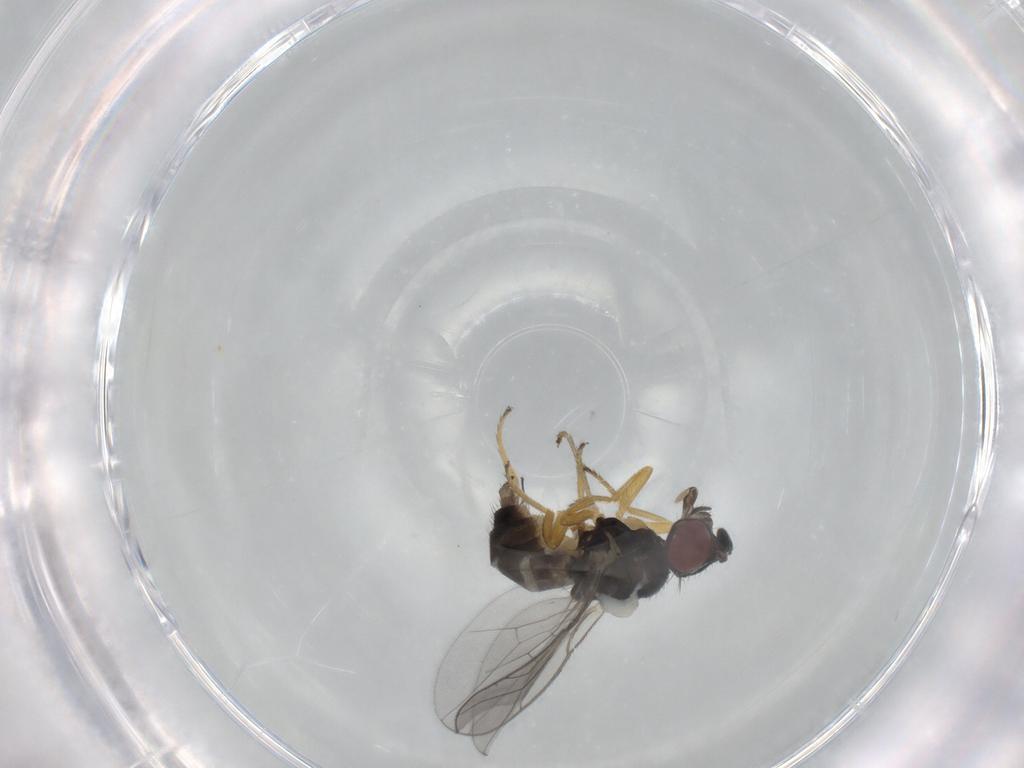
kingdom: Animalia
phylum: Arthropoda
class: Insecta
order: Diptera
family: Chloropidae
